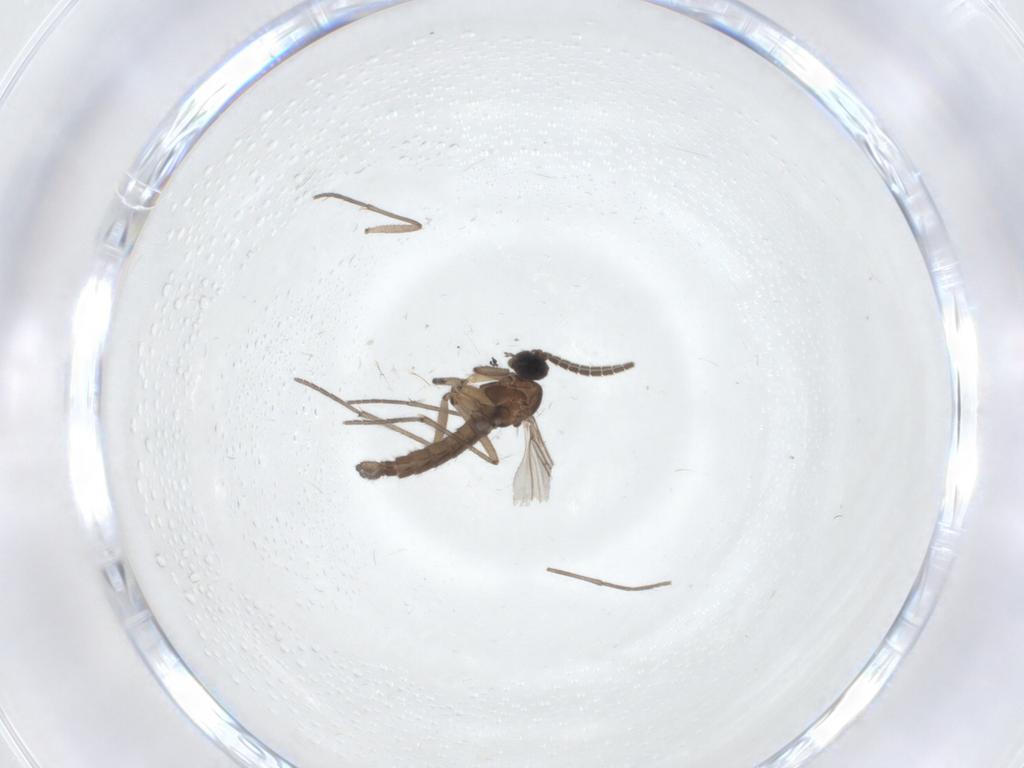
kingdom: Animalia
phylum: Arthropoda
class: Insecta
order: Diptera
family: Sciaridae
